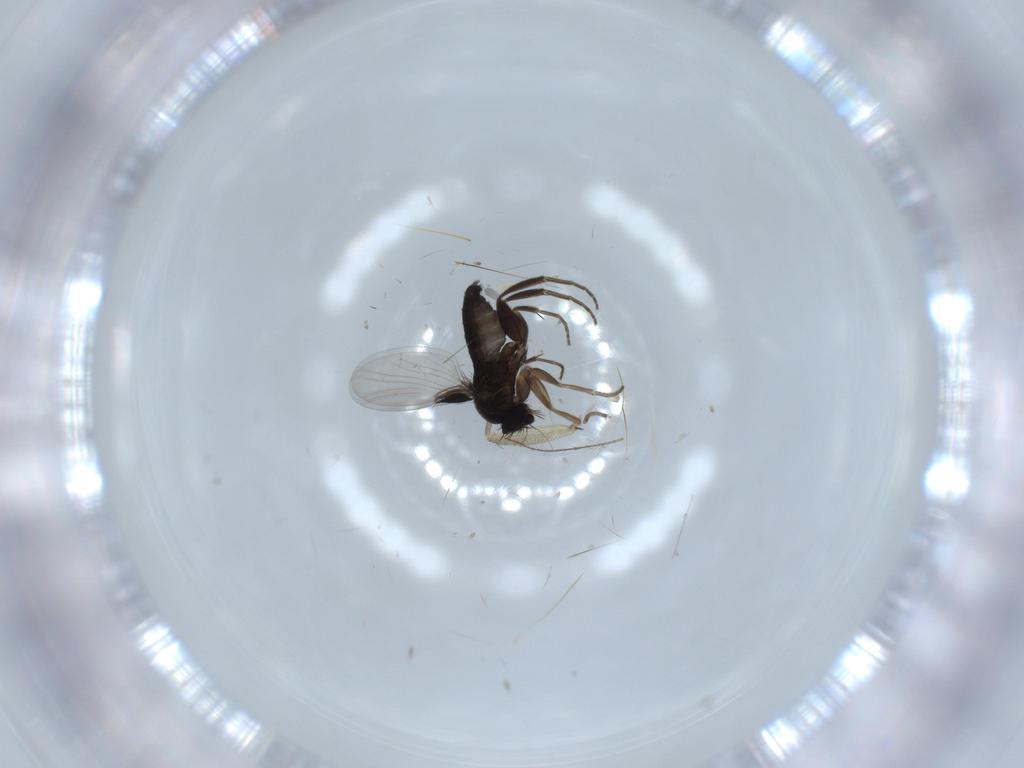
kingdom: Animalia
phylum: Arthropoda
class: Insecta
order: Diptera
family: Sciaridae
